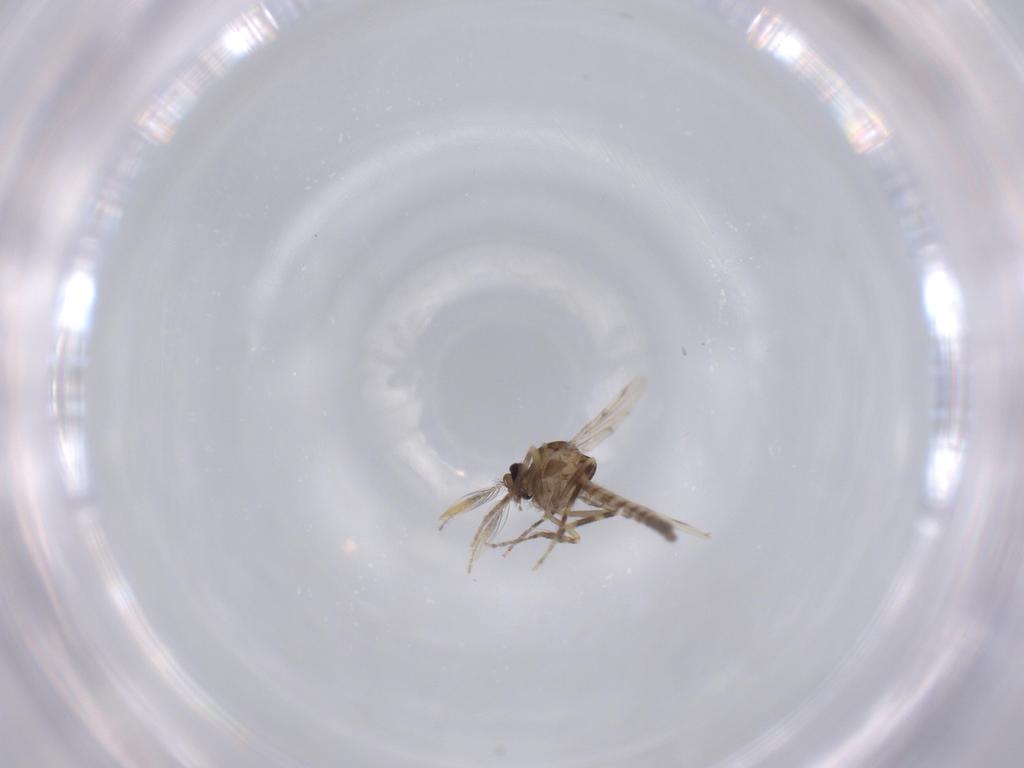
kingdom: Animalia
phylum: Arthropoda
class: Insecta
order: Diptera
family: Ceratopogonidae
